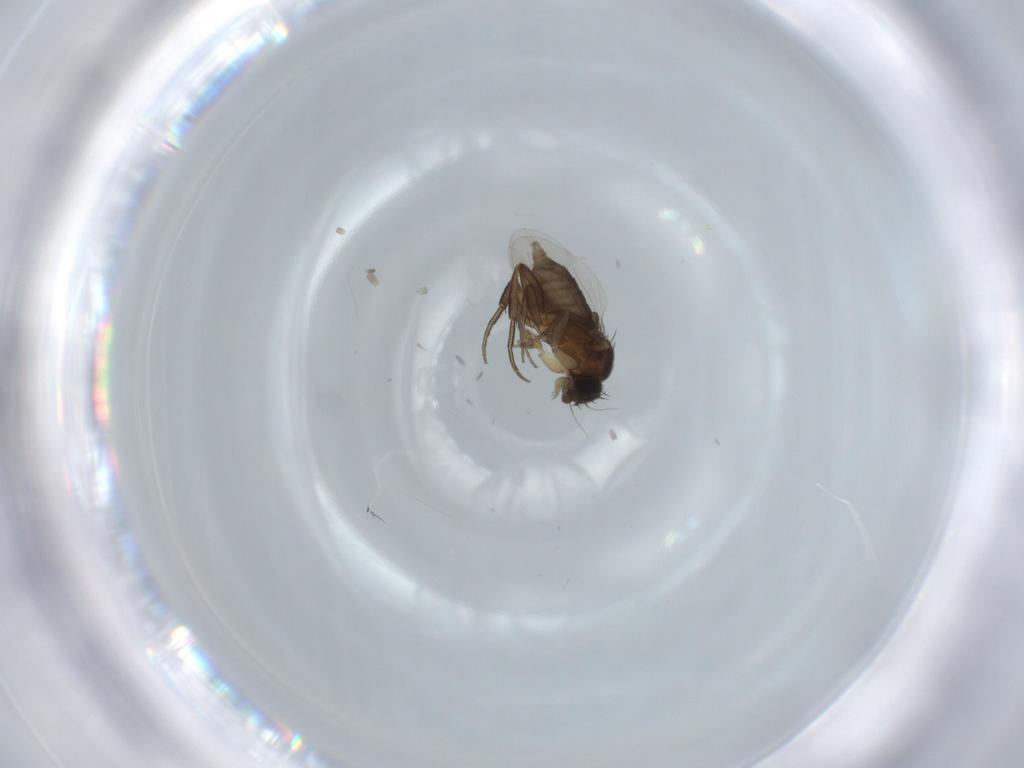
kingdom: Animalia
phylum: Arthropoda
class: Insecta
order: Diptera
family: Phoridae
